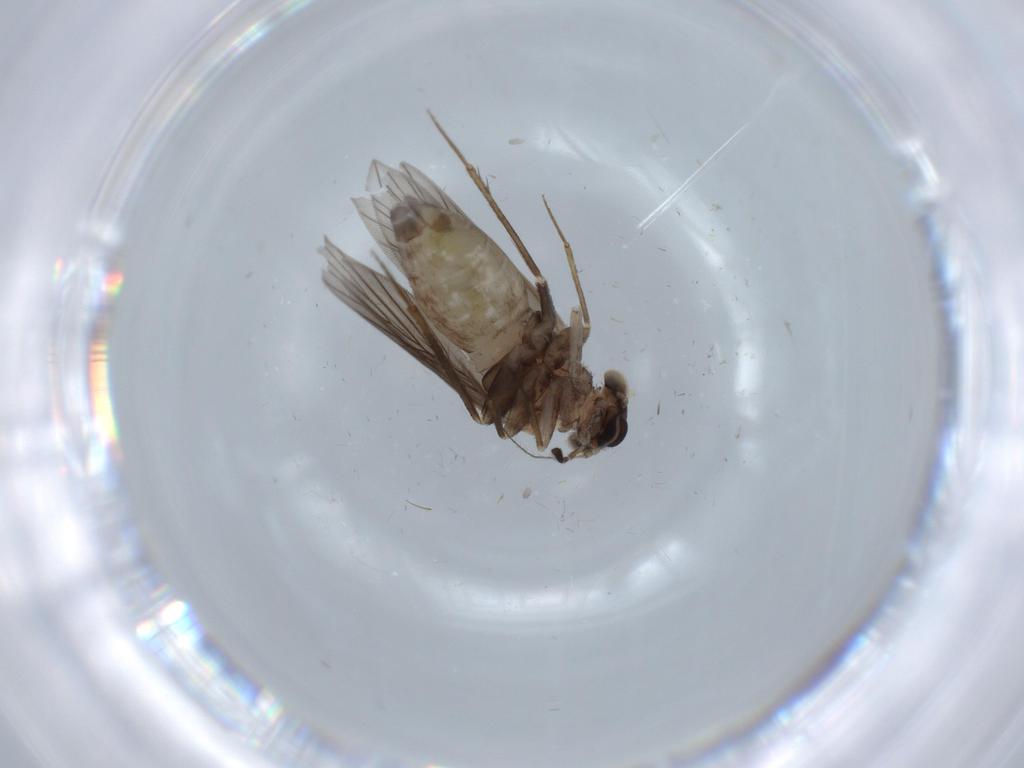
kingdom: Animalia
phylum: Arthropoda
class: Insecta
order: Psocodea
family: Lepidopsocidae
